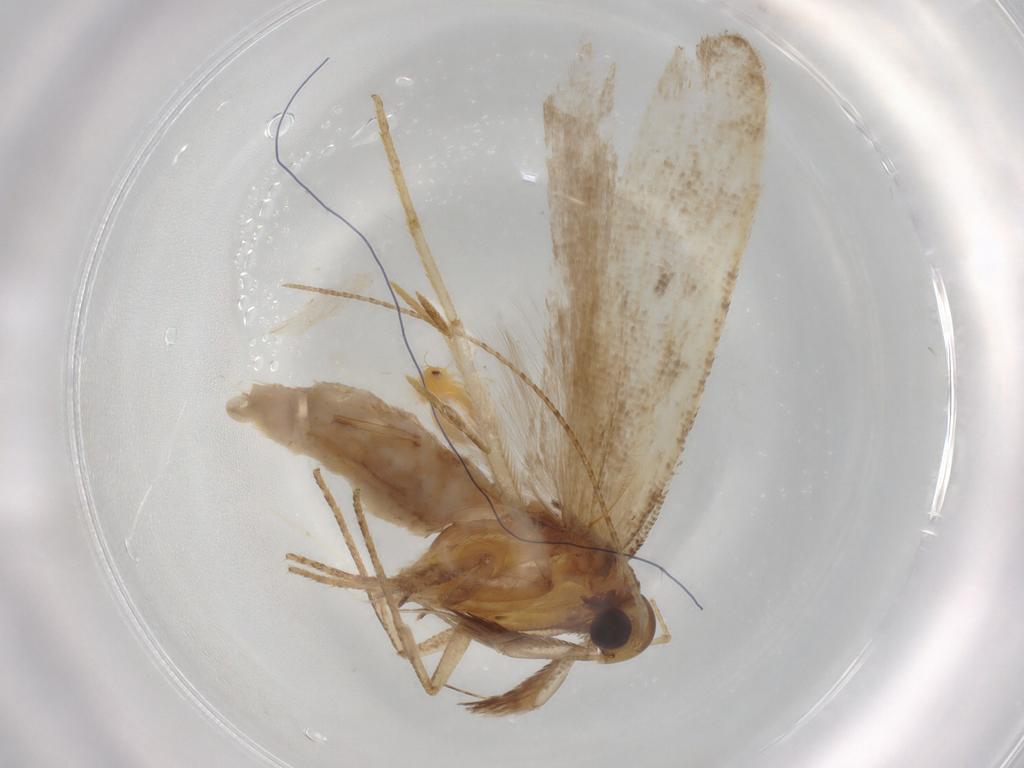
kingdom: Animalia
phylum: Arthropoda
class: Insecta
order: Lepidoptera
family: Gelechiidae
